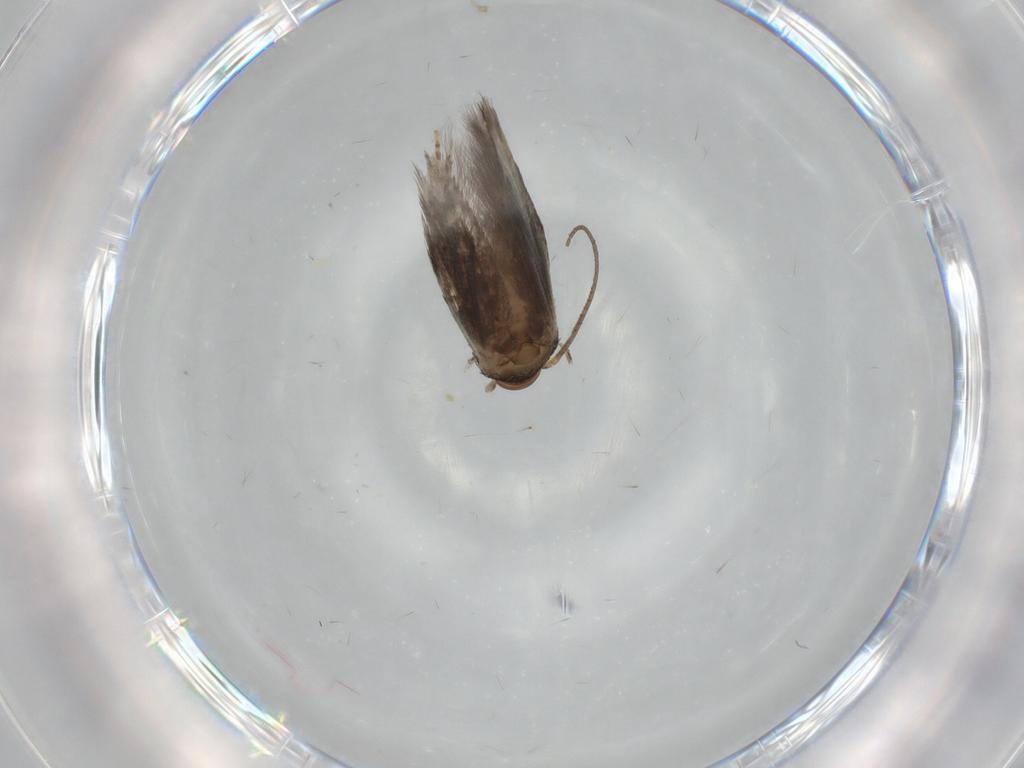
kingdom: Animalia
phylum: Arthropoda
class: Insecta
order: Lepidoptera
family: Elachistidae
